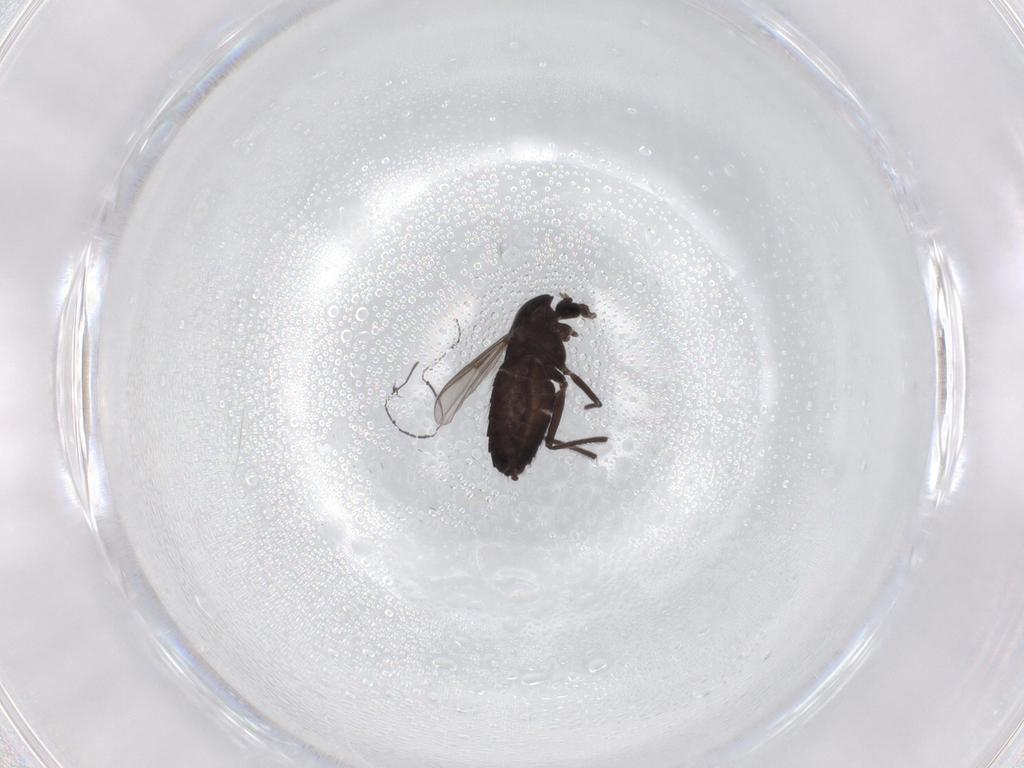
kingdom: Animalia
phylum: Arthropoda
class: Insecta
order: Diptera
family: Chironomidae
